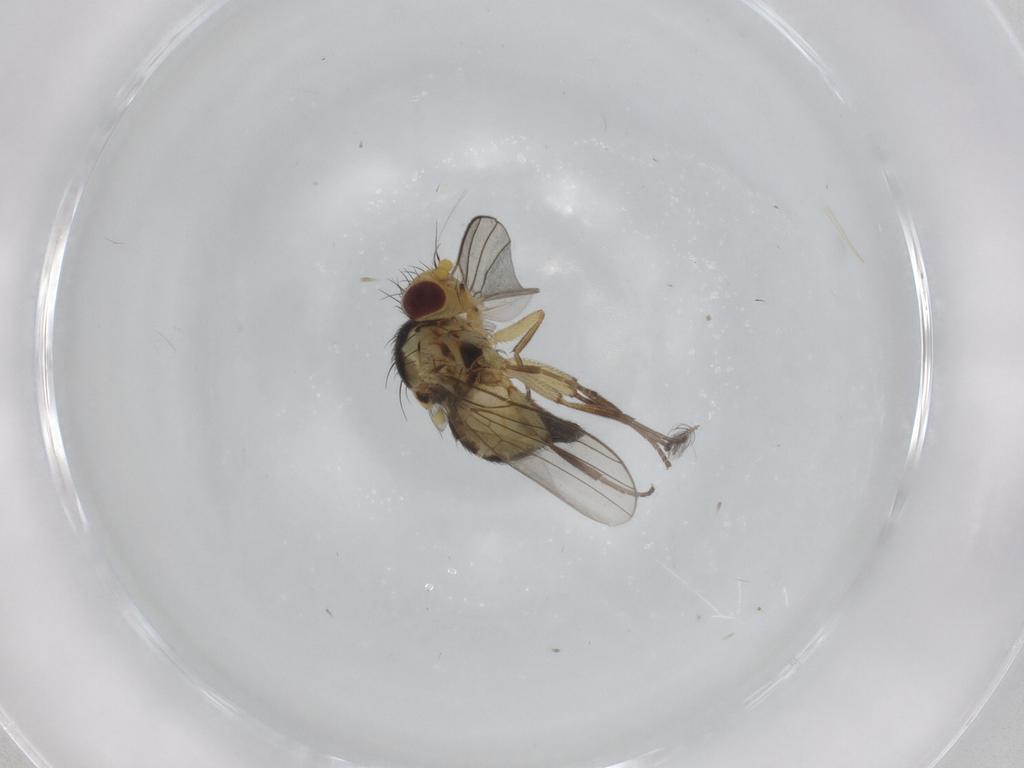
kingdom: Animalia
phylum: Arthropoda
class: Insecta
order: Diptera
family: Agromyzidae
